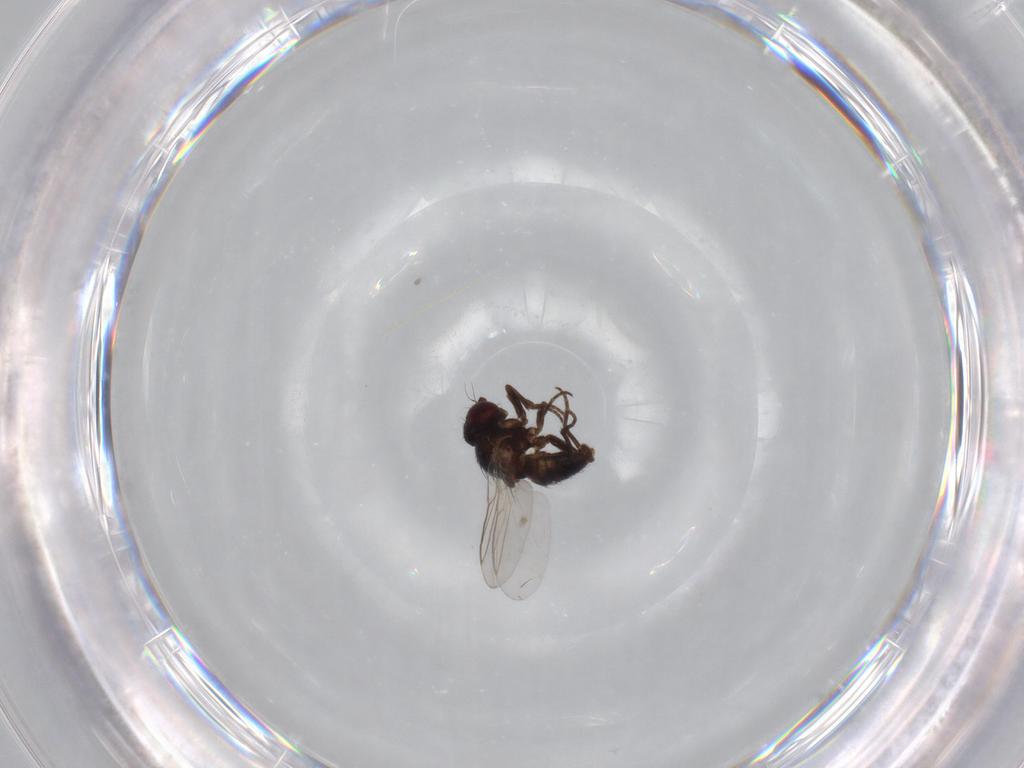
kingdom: Animalia
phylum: Arthropoda
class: Insecta
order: Diptera
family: Agromyzidae
